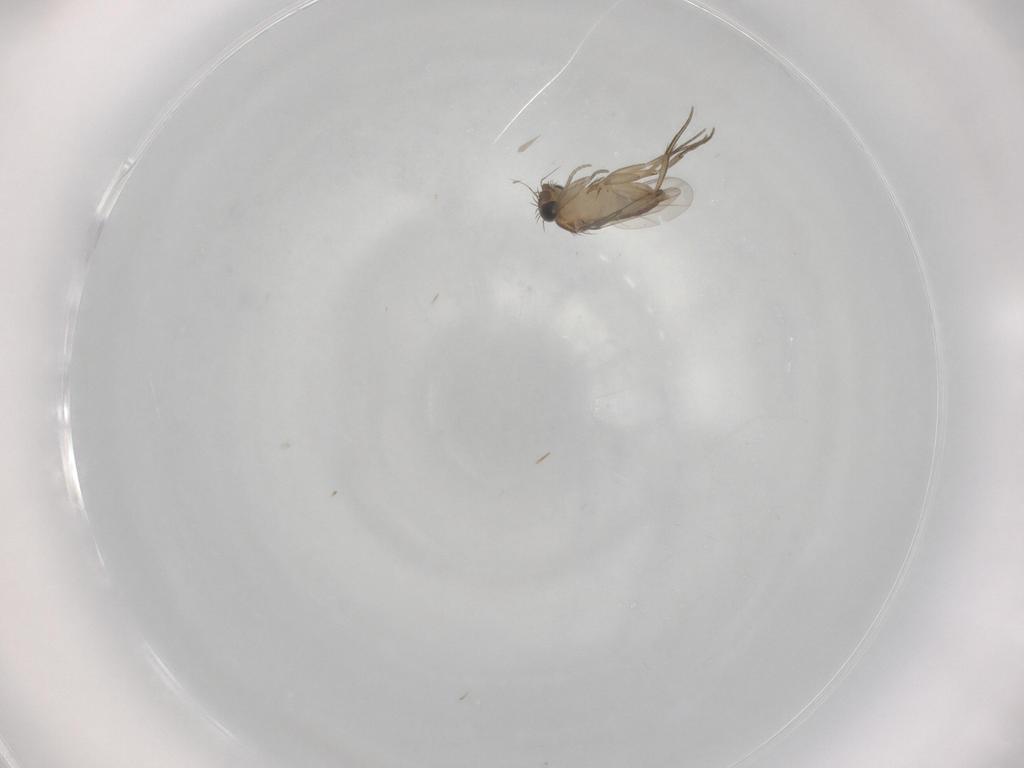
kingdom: Animalia
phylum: Arthropoda
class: Insecta
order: Diptera
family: Phoridae
